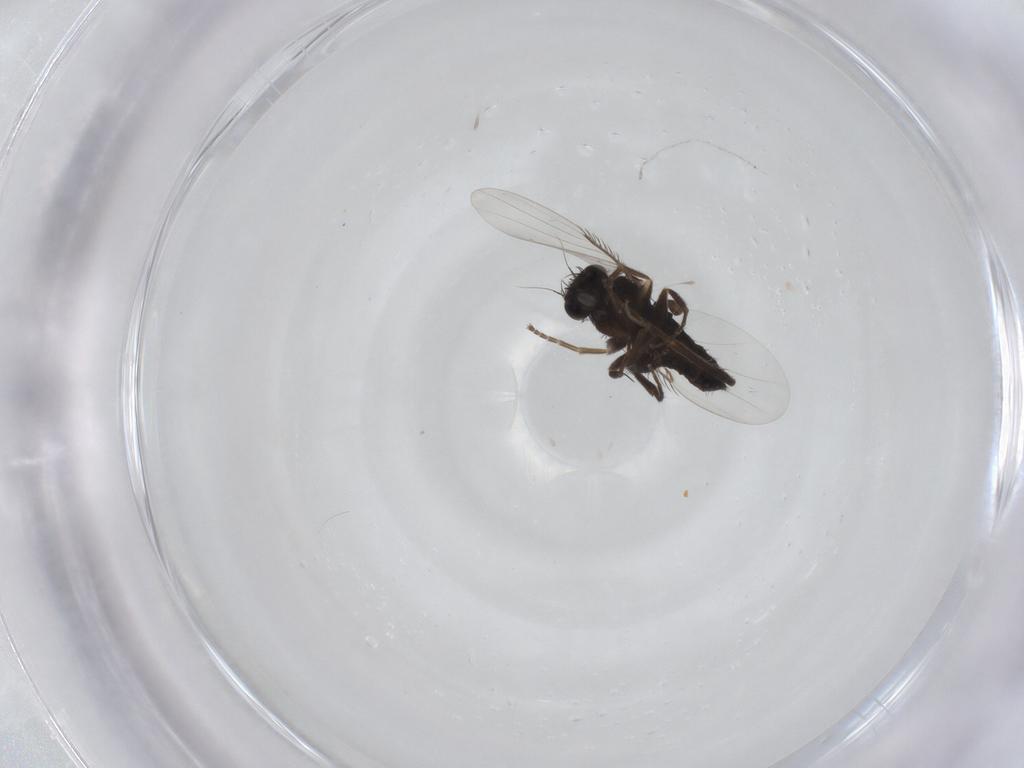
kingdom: Animalia
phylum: Arthropoda
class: Insecta
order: Diptera
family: Phoridae
